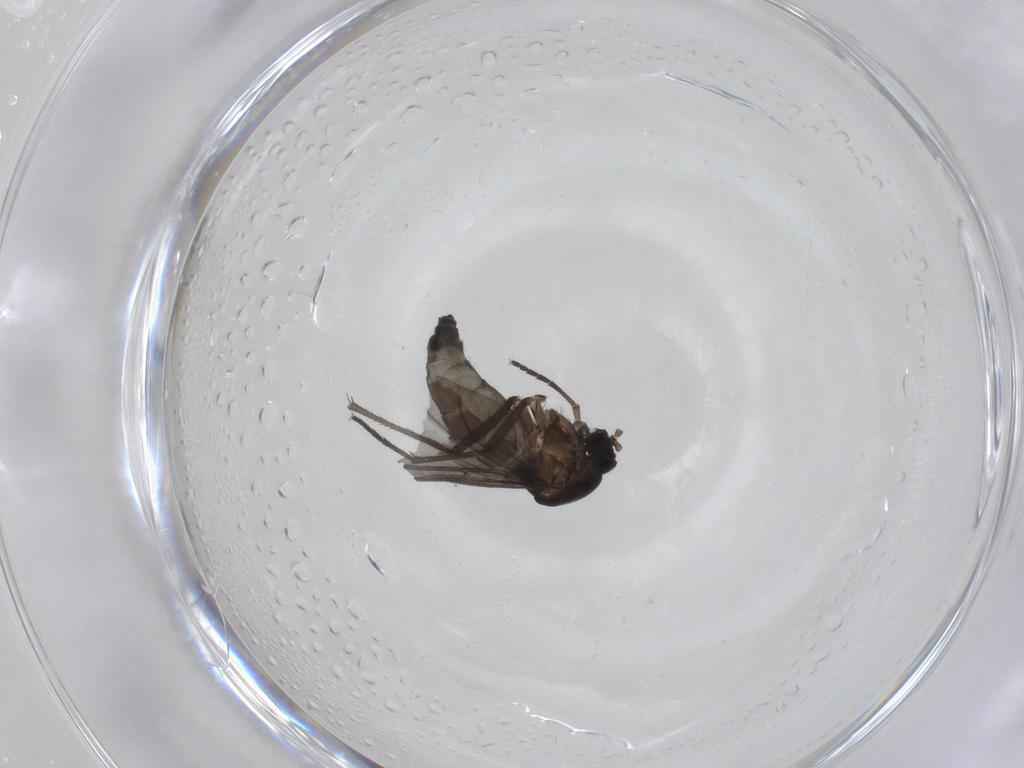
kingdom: Animalia
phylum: Arthropoda
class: Insecta
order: Diptera
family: Sciaridae
